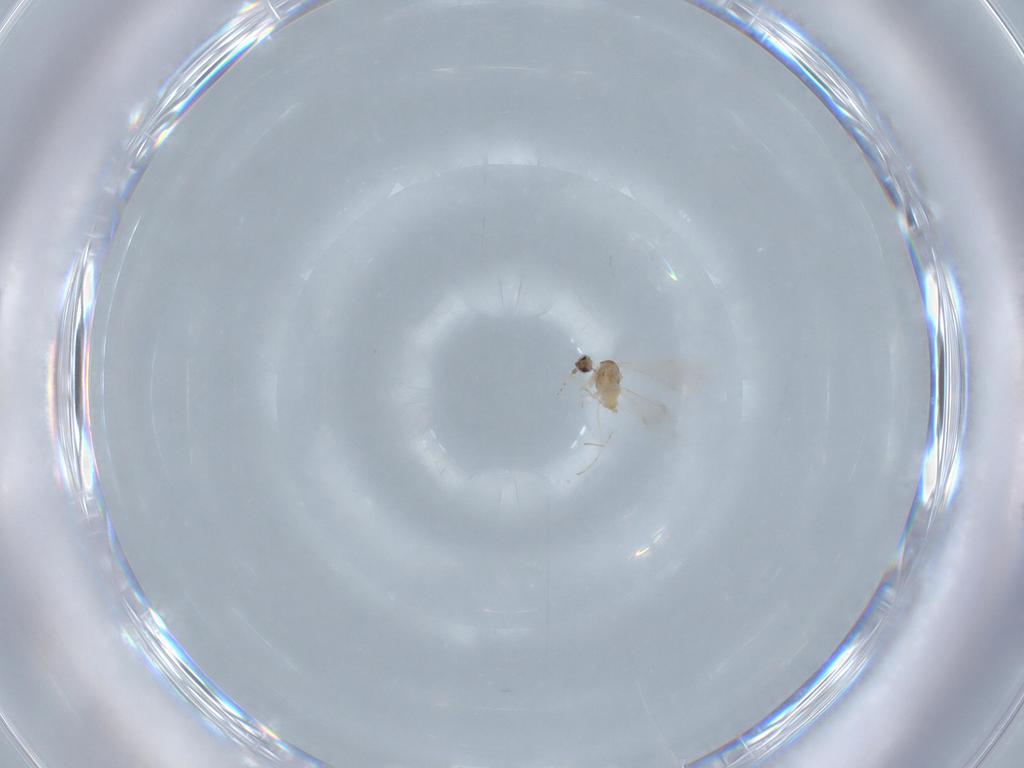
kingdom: Animalia
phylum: Arthropoda
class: Insecta
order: Diptera
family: Cecidomyiidae
